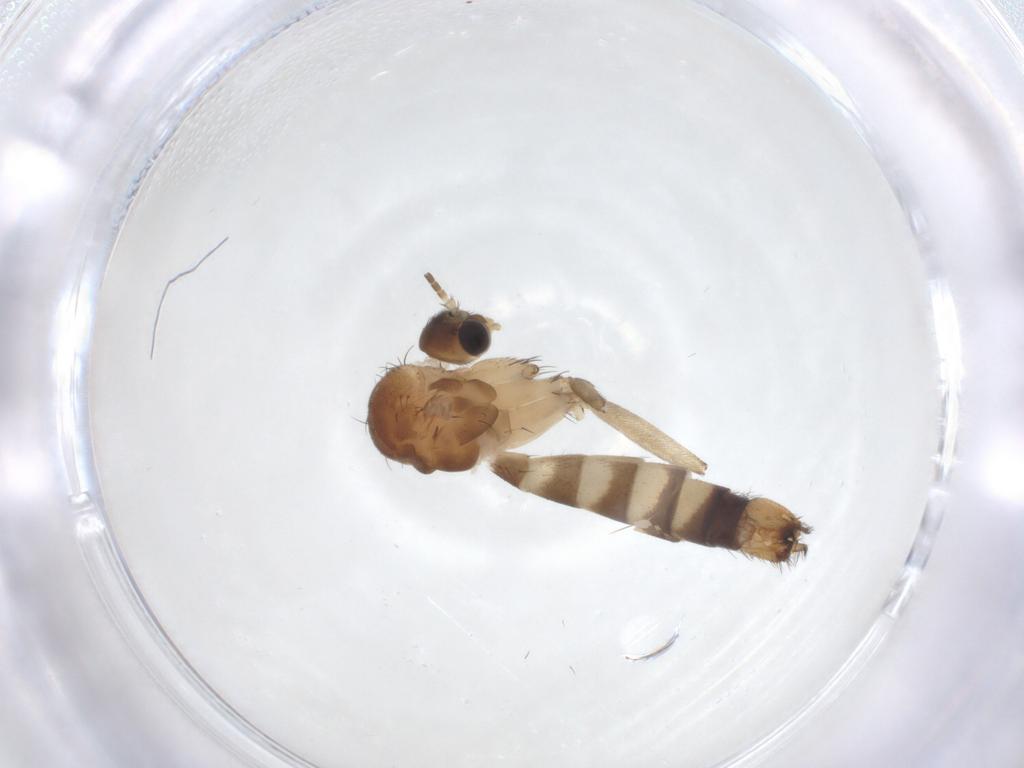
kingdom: Animalia
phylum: Arthropoda
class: Insecta
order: Diptera
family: Mycetophilidae
